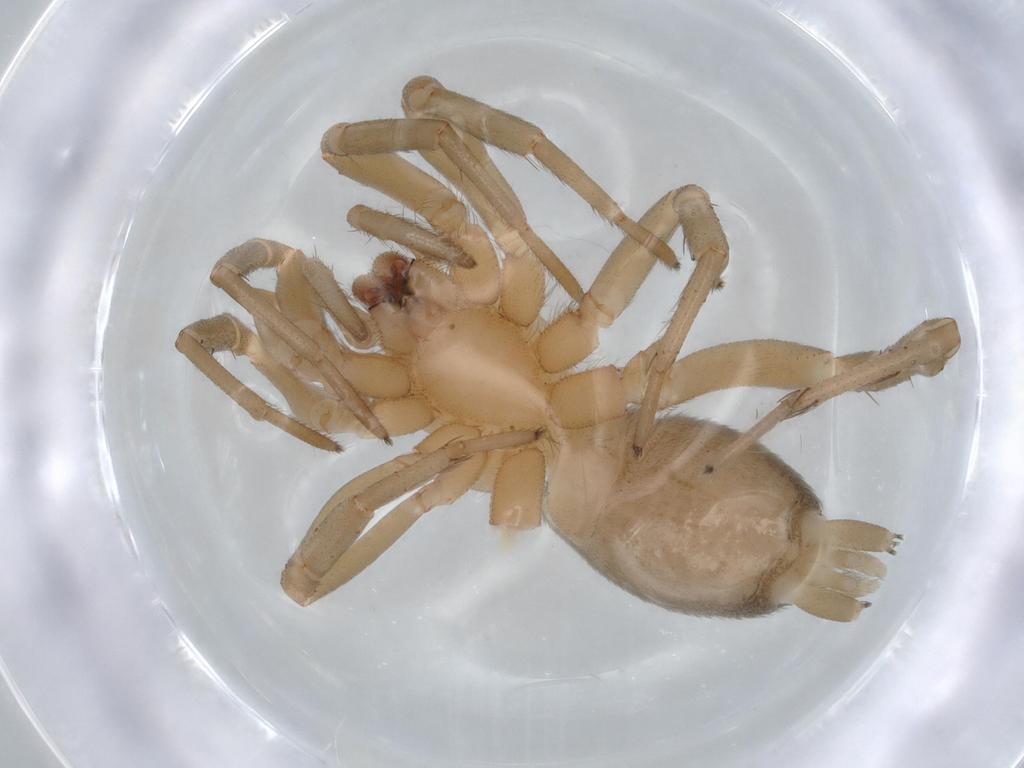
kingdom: Animalia
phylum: Arthropoda
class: Arachnida
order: Araneae
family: Gnaphosidae
